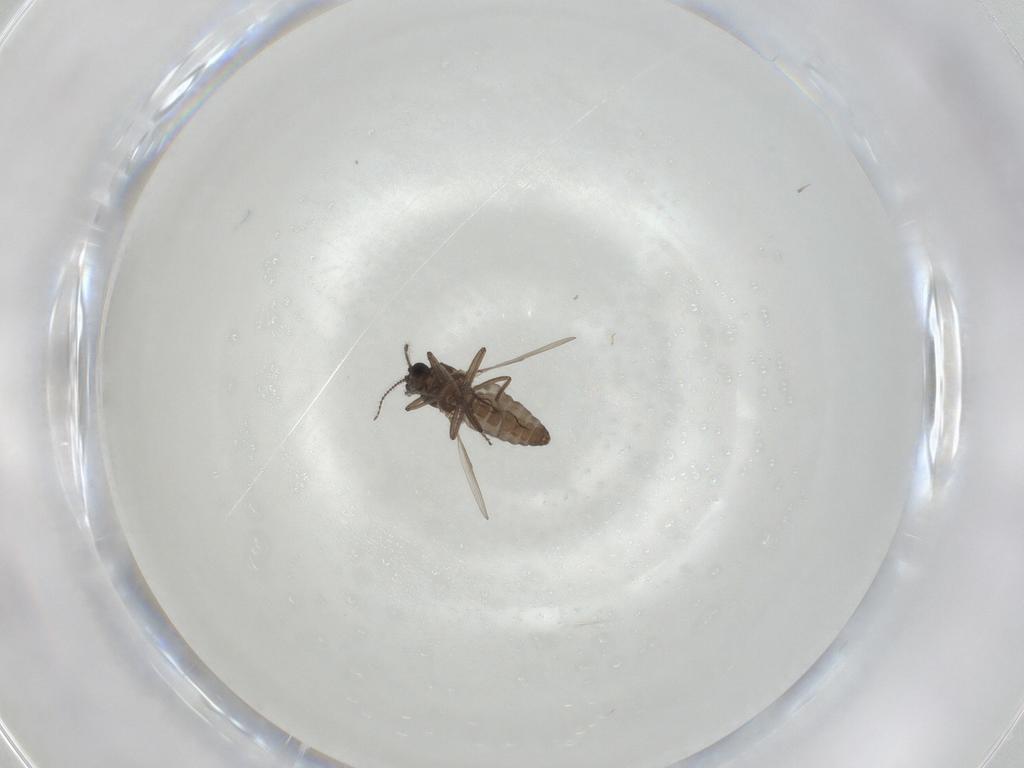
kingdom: Animalia
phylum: Arthropoda
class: Insecta
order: Diptera
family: Ceratopogonidae
